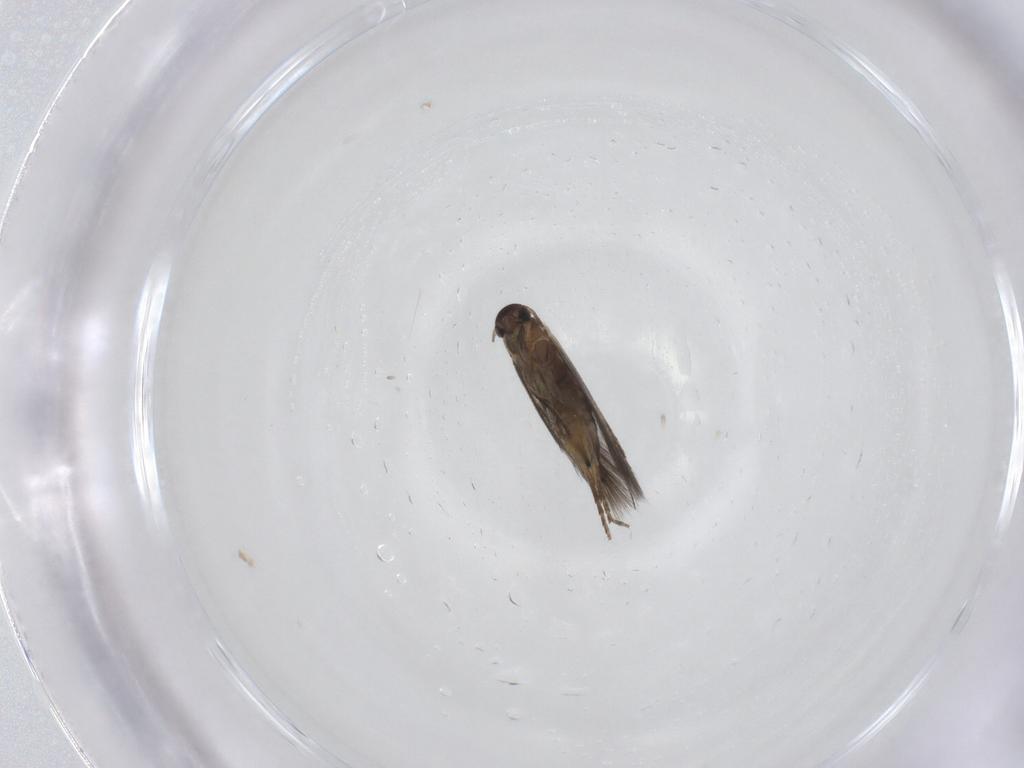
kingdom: Animalia
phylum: Arthropoda
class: Insecta
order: Lepidoptera
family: Heliozelidae
